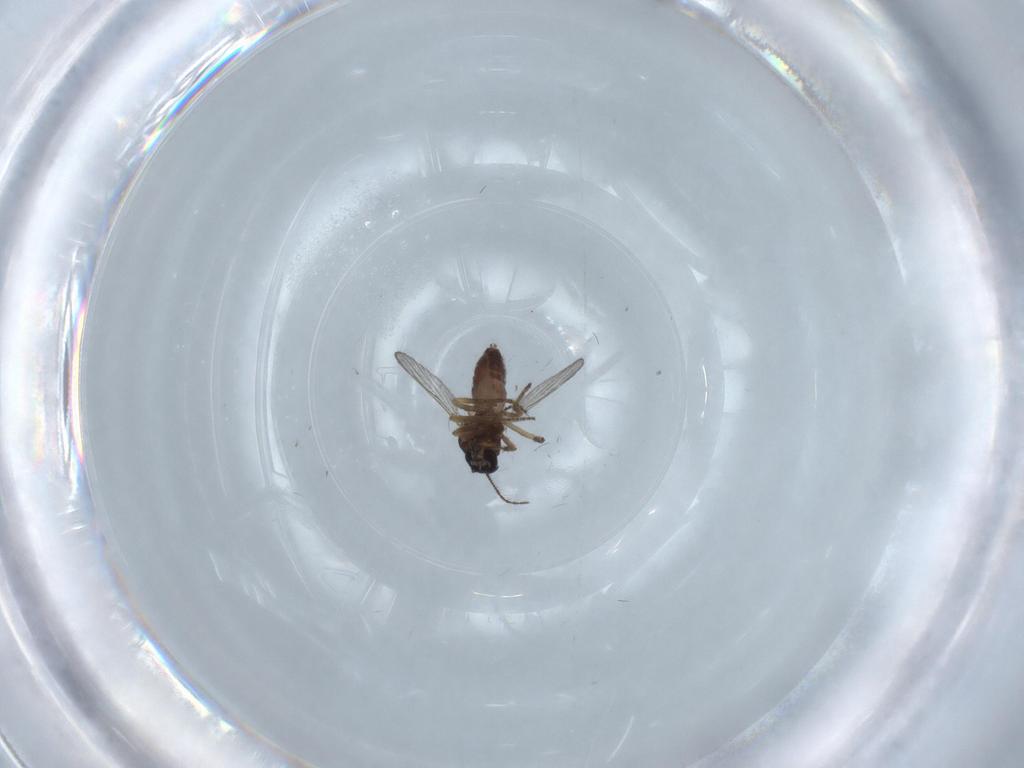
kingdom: Animalia
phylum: Arthropoda
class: Insecta
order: Diptera
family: Ceratopogonidae
